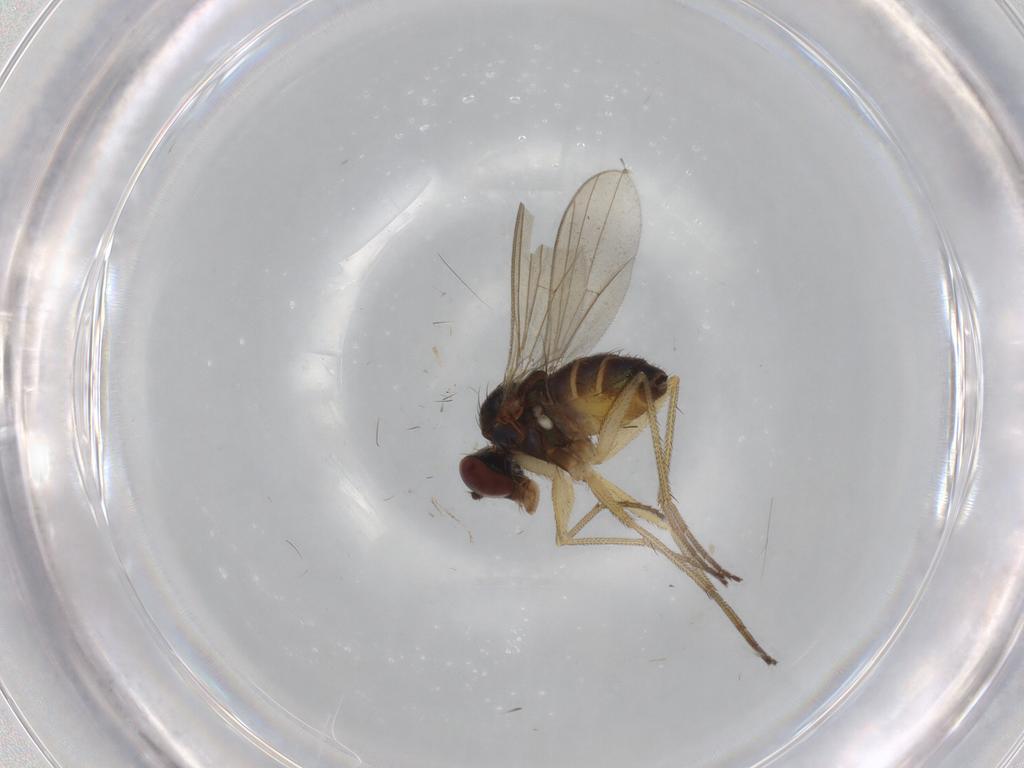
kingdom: Animalia
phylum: Arthropoda
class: Insecta
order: Diptera
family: Dolichopodidae
